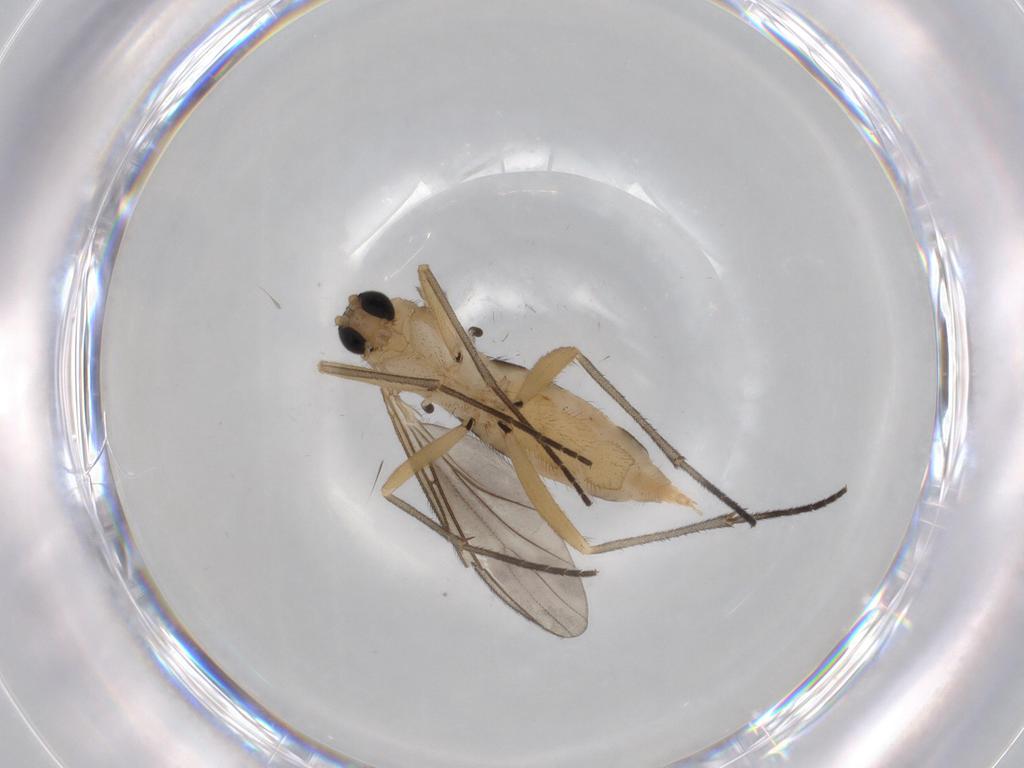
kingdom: Animalia
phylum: Arthropoda
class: Insecta
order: Diptera
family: Sciaridae
